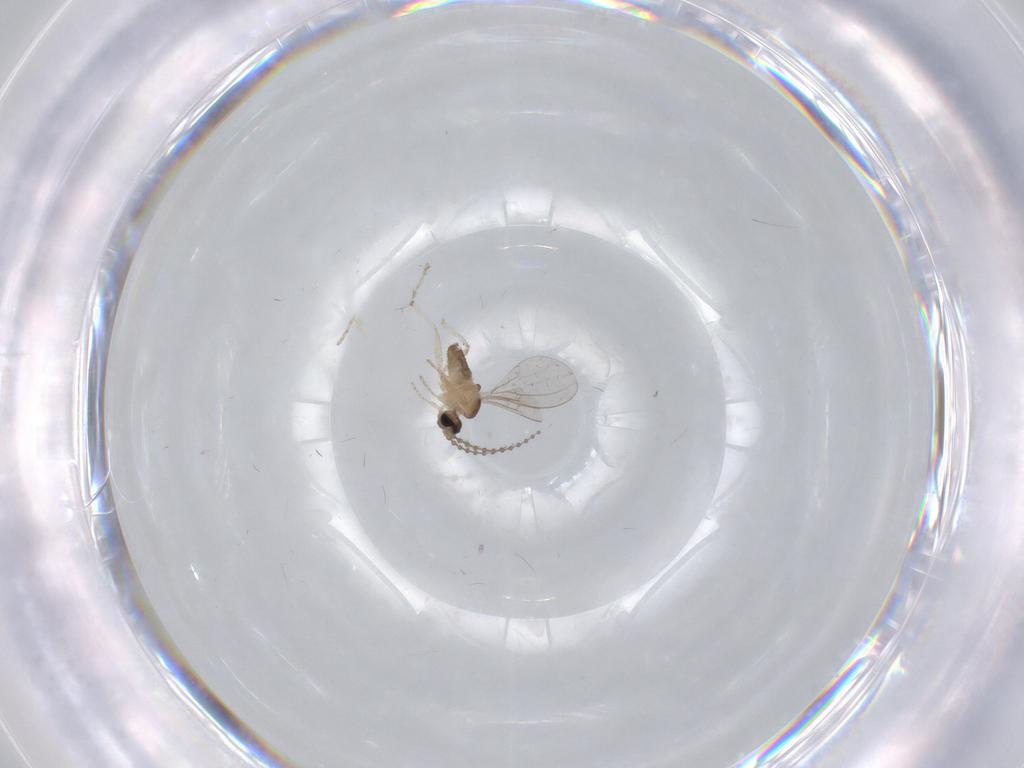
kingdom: Animalia
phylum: Arthropoda
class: Insecta
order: Diptera
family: Cecidomyiidae
